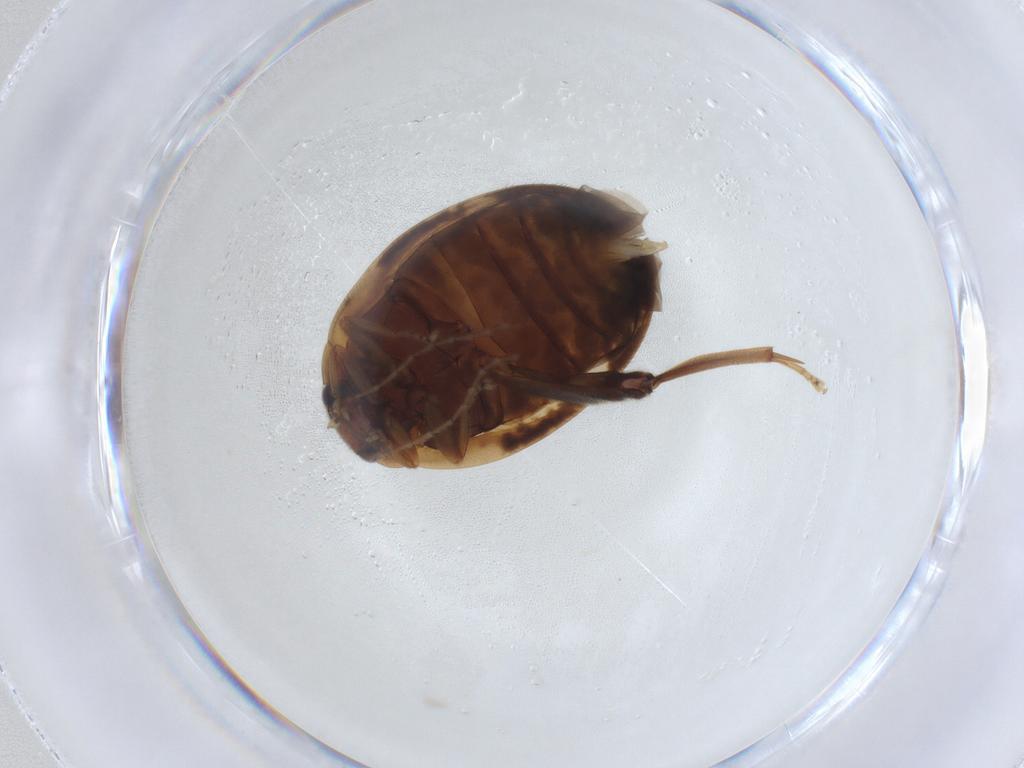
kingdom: Animalia
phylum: Arthropoda
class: Insecta
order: Coleoptera
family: Scirtidae
